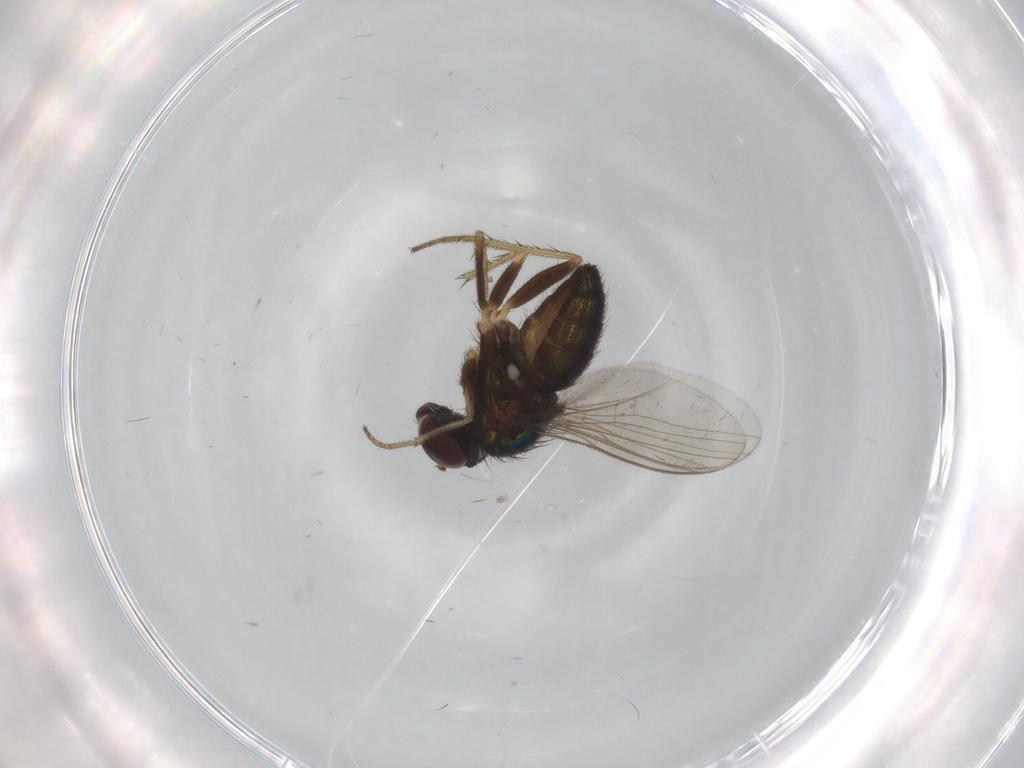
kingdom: Animalia
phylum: Arthropoda
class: Insecta
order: Diptera
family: Dolichopodidae
